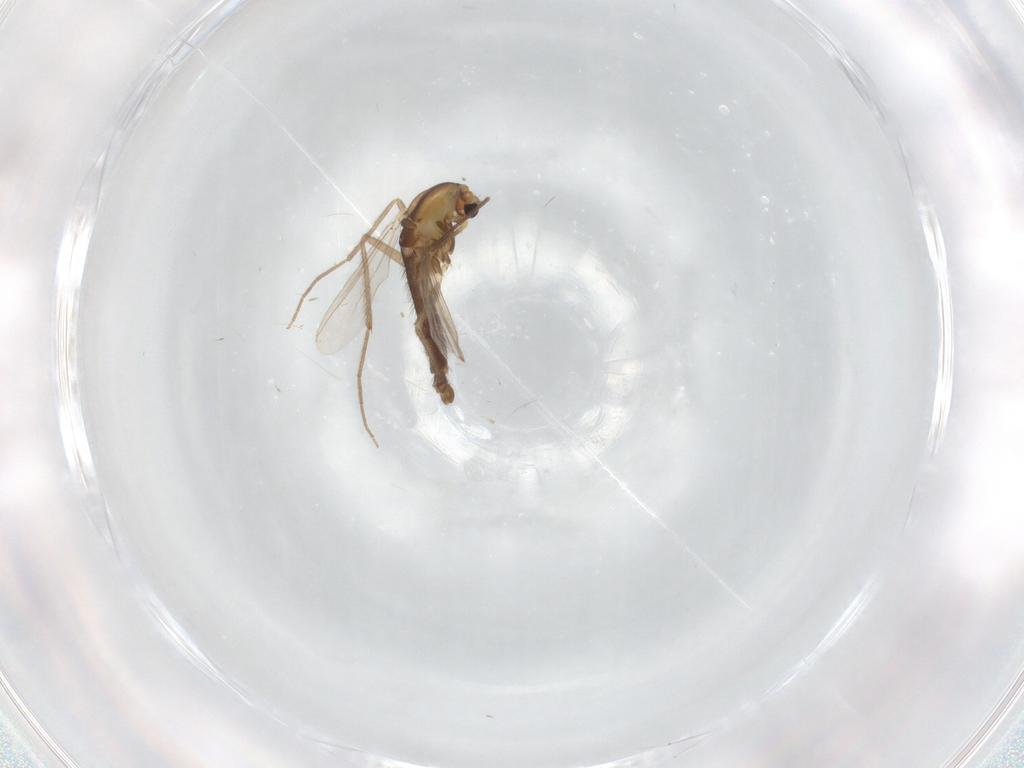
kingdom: Animalia
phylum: Arthropoda
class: Insecta
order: Diptera
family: Chironomidae
